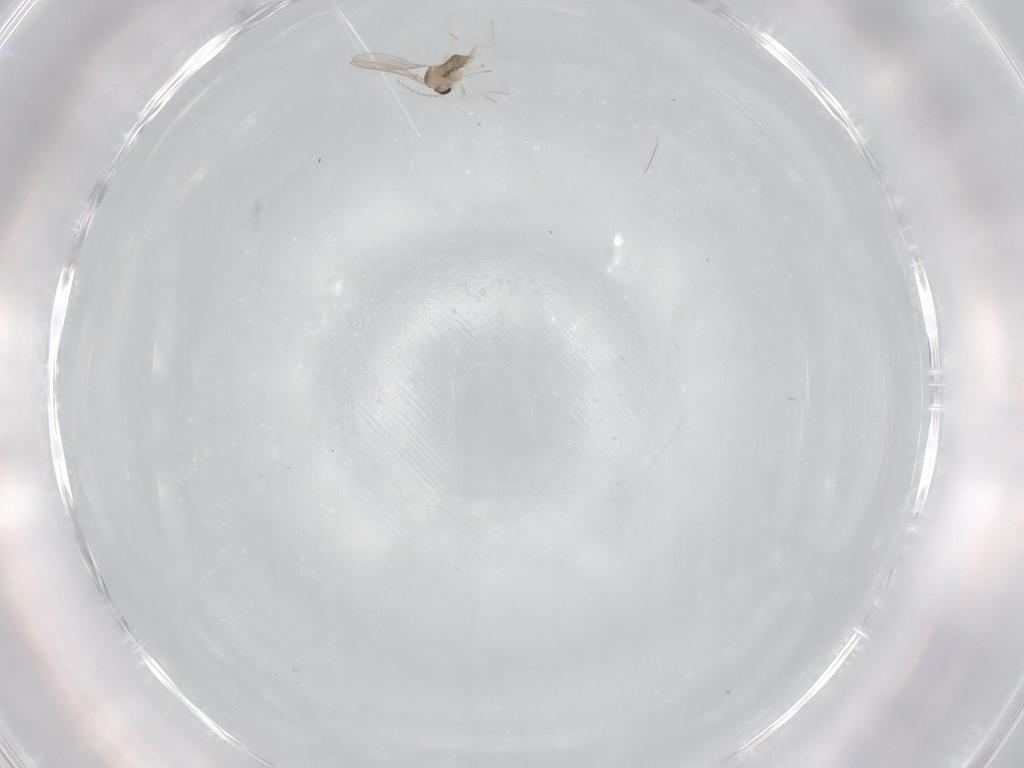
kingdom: Animalia
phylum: Arthropoda
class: Insecta
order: Diptera
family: Cecidomyiidae
